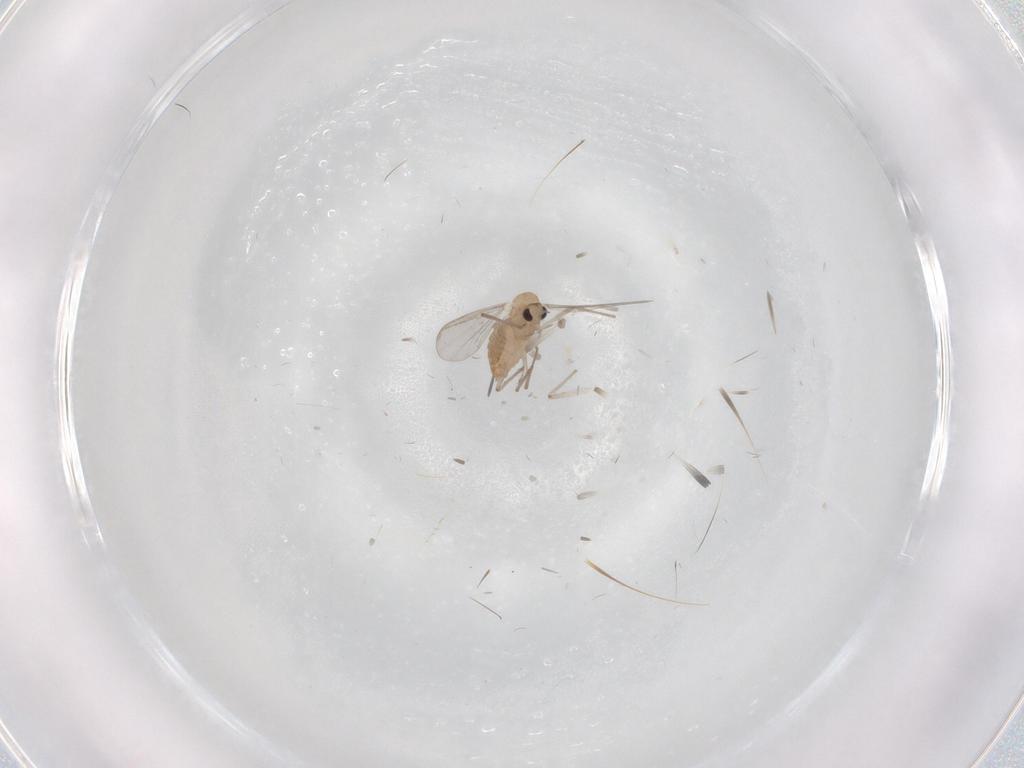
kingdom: Animalia
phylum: Arthropoda
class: Insecta
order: Diptera
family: Chironomidae
